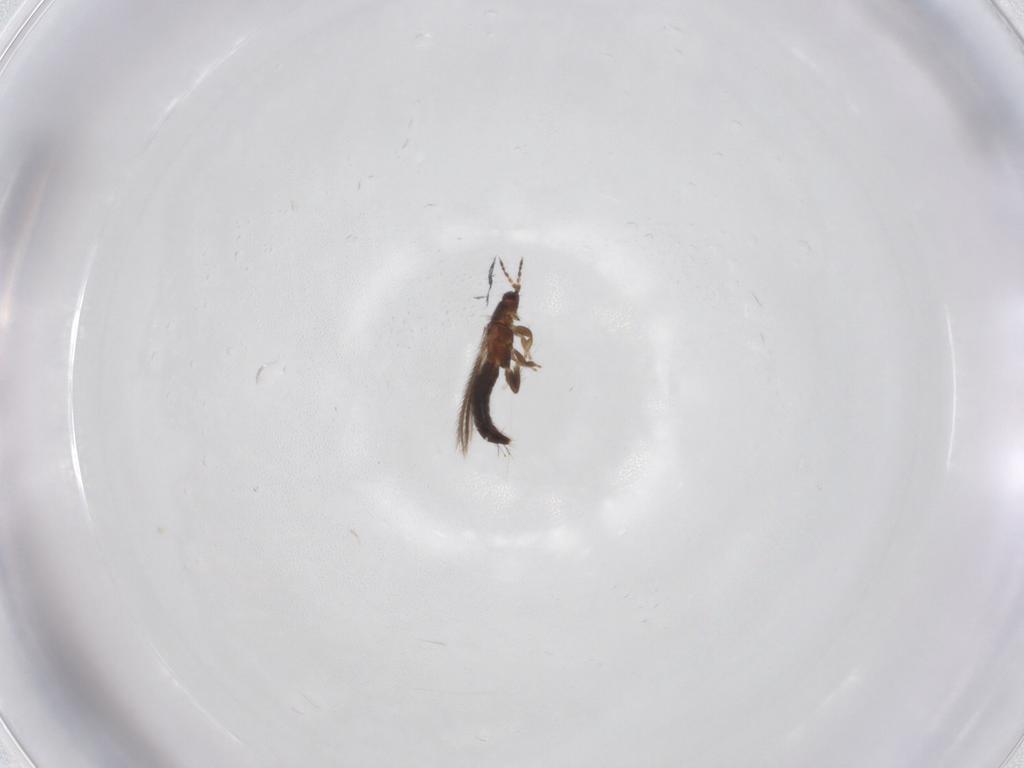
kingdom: Animalia
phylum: Arthropoda
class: Insecta
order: Thysanoptera
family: Thripidae
